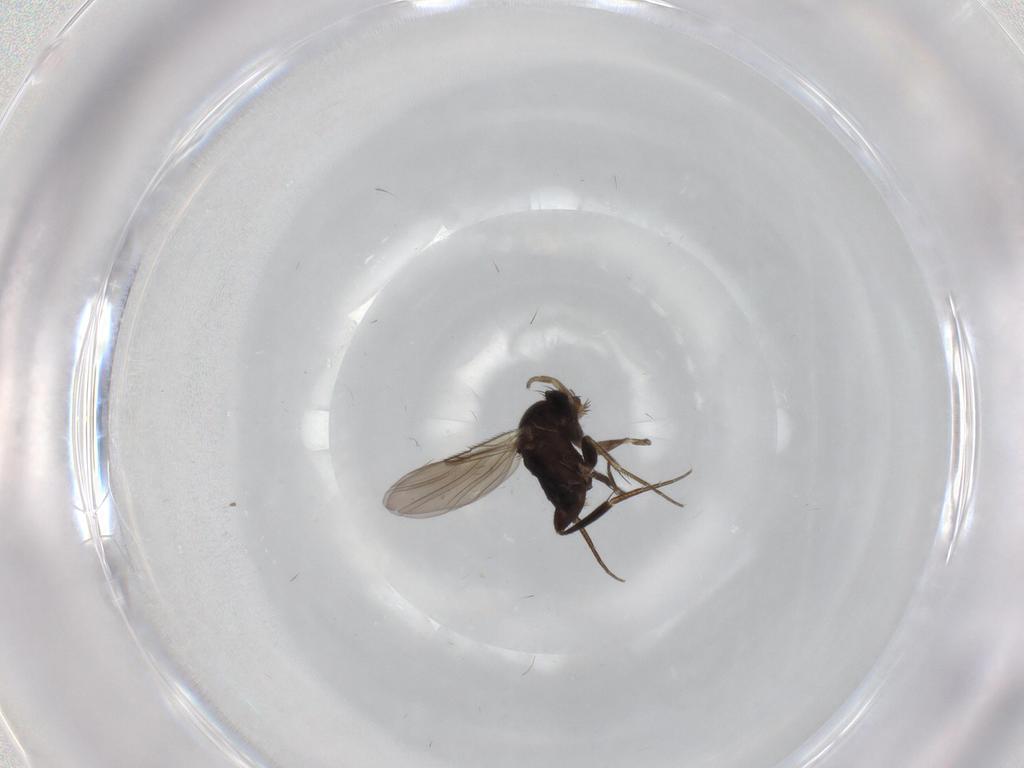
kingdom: Animalia
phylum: Arthropoda
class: Insecta
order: Diptera
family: Phoridae
